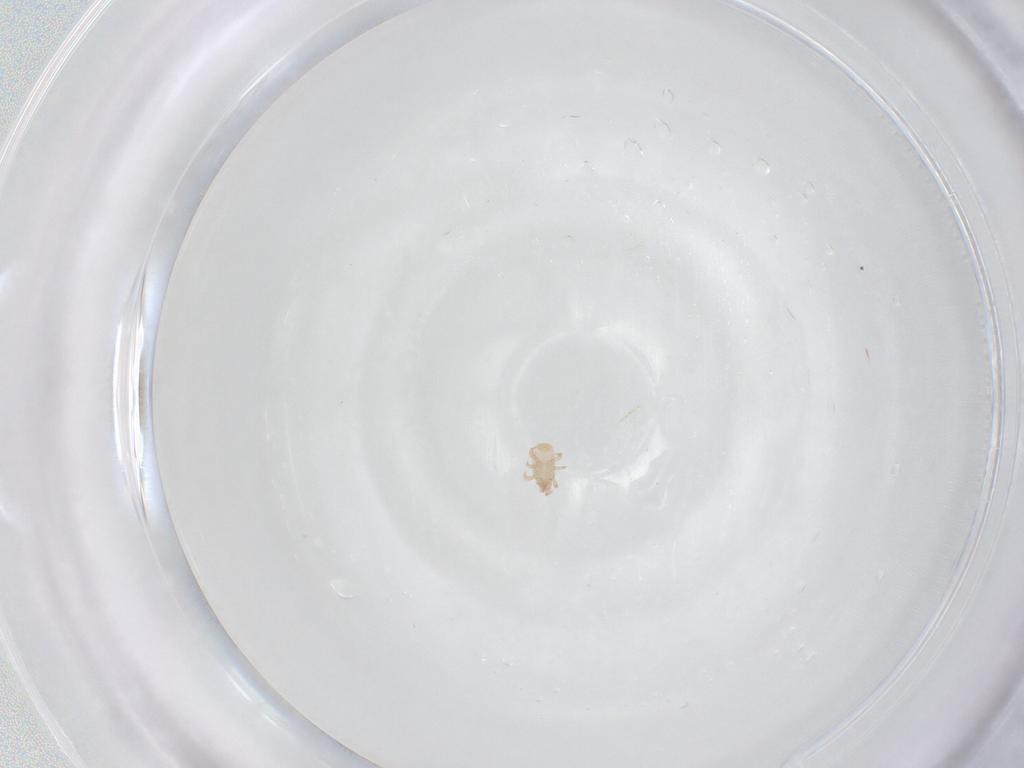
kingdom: Animalia
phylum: Arthropoda
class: Arachnida
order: Mesostigmata
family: Digamasellidae
